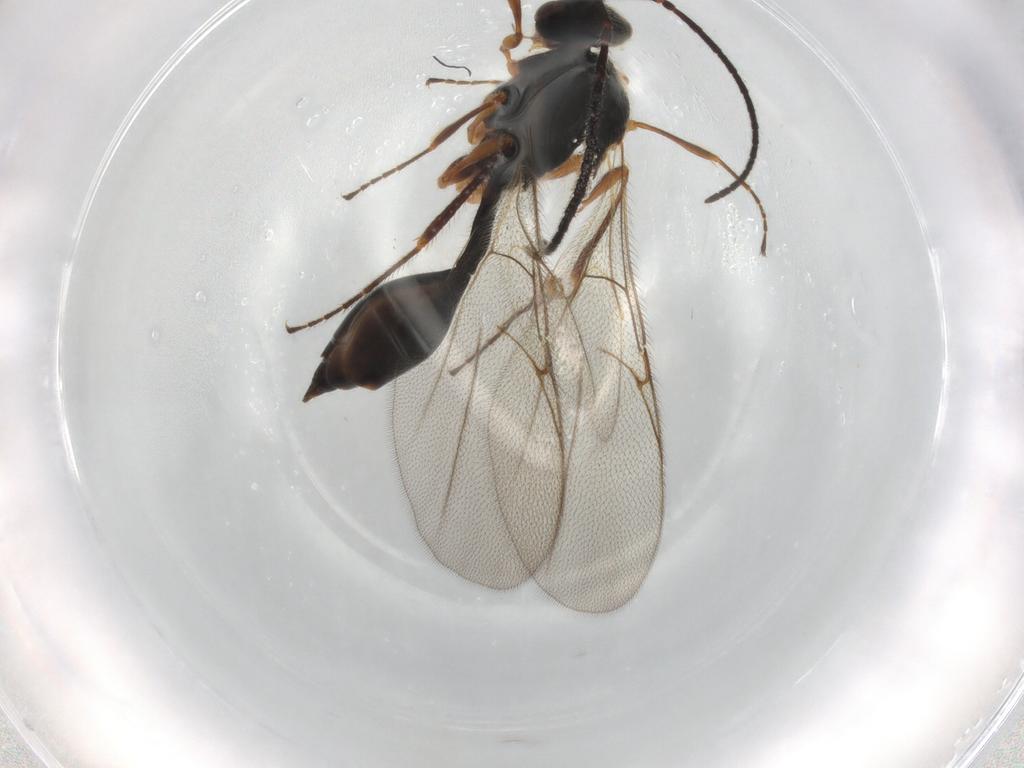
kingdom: Animalia
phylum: Arthropoda
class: Insecta
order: Hymenoptera
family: Diapriidae
